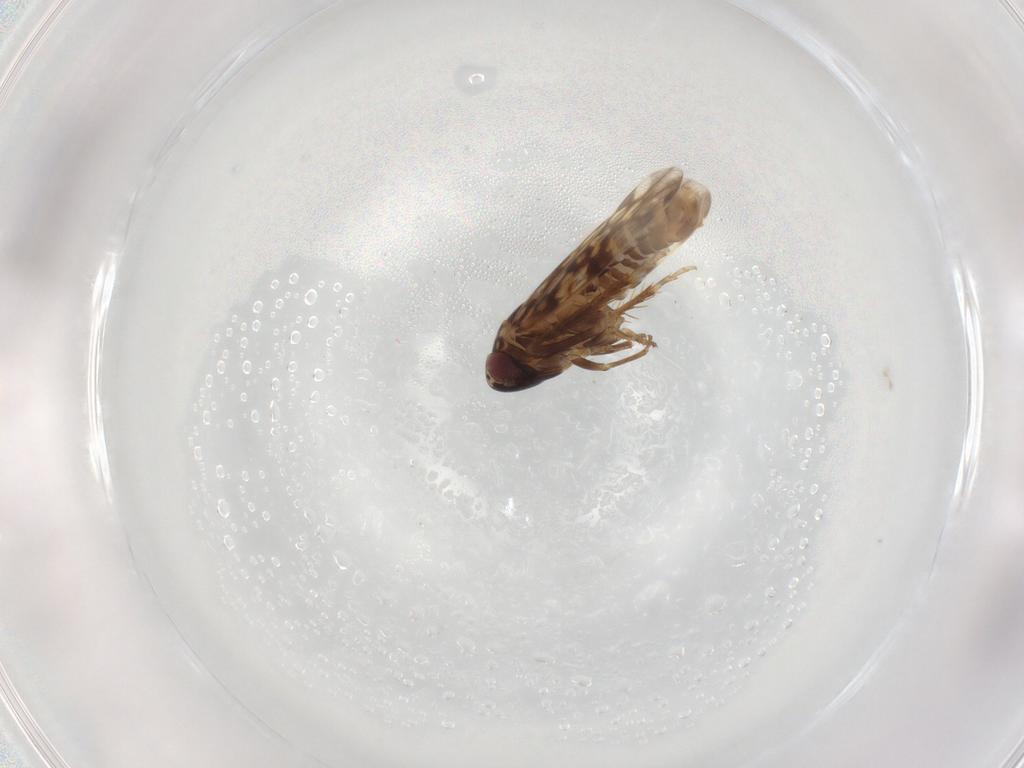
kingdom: Animalia
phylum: Arthropoda
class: Insecta
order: Hemiptera
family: Cicadellidae
